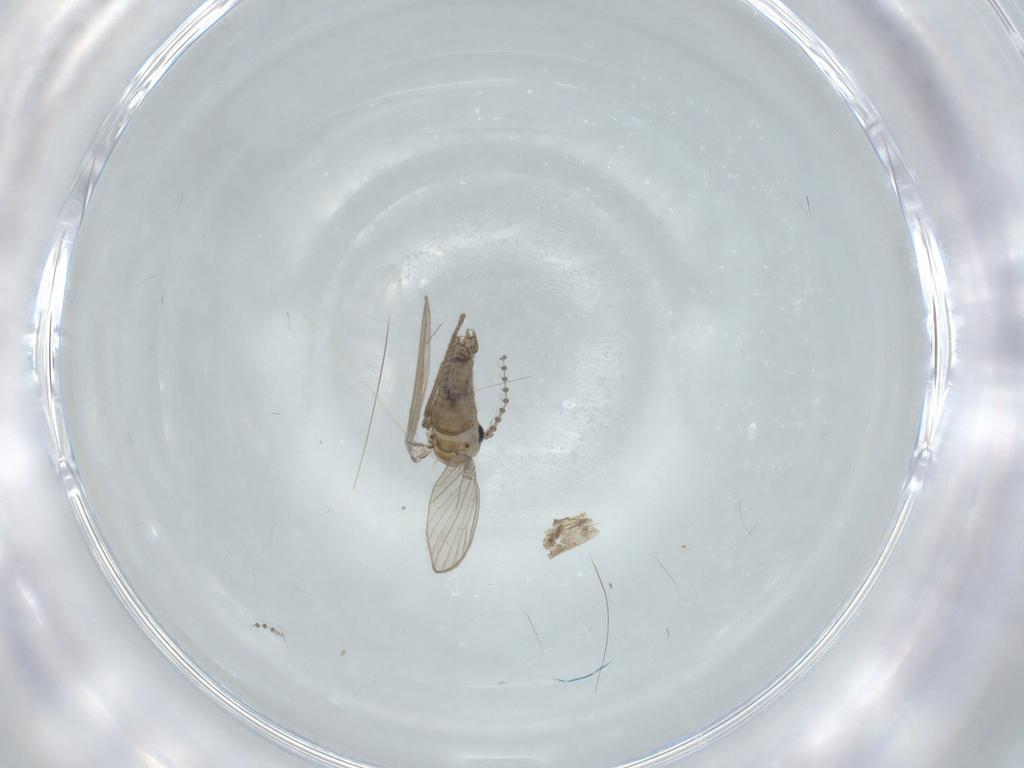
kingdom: Animalia
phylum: Arthropoda
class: Insecta
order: Diptera
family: Psychodidae
